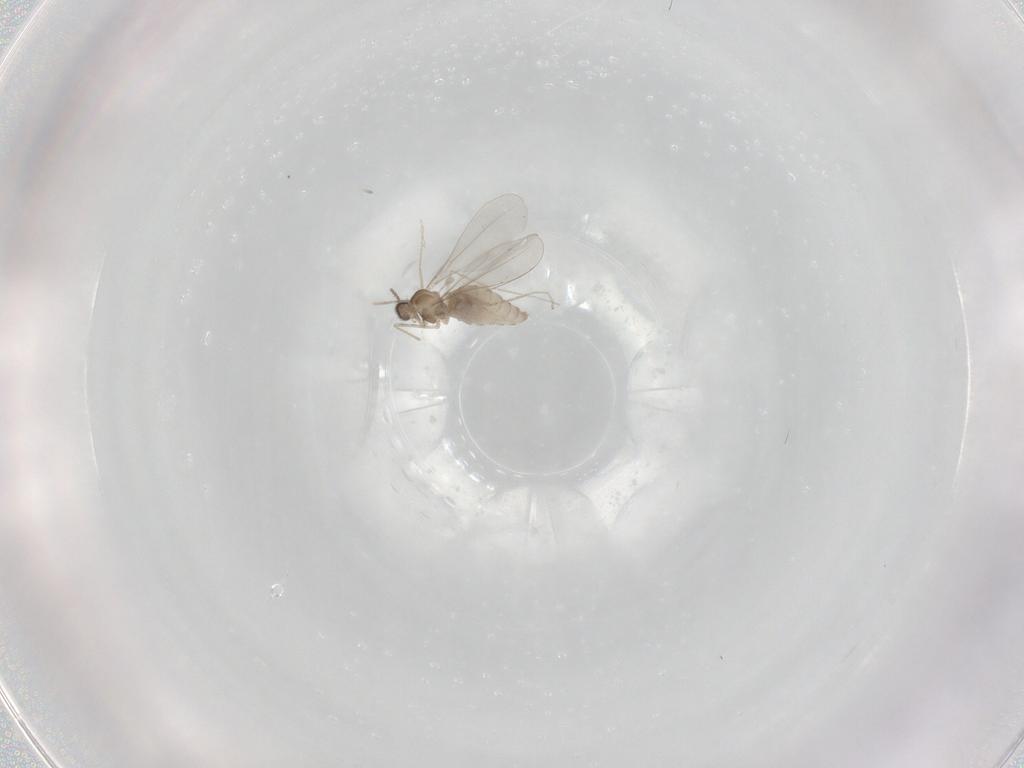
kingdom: Animalia
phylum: Arthropoda
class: Insecta
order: Diptera
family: Cecidomyiidae
